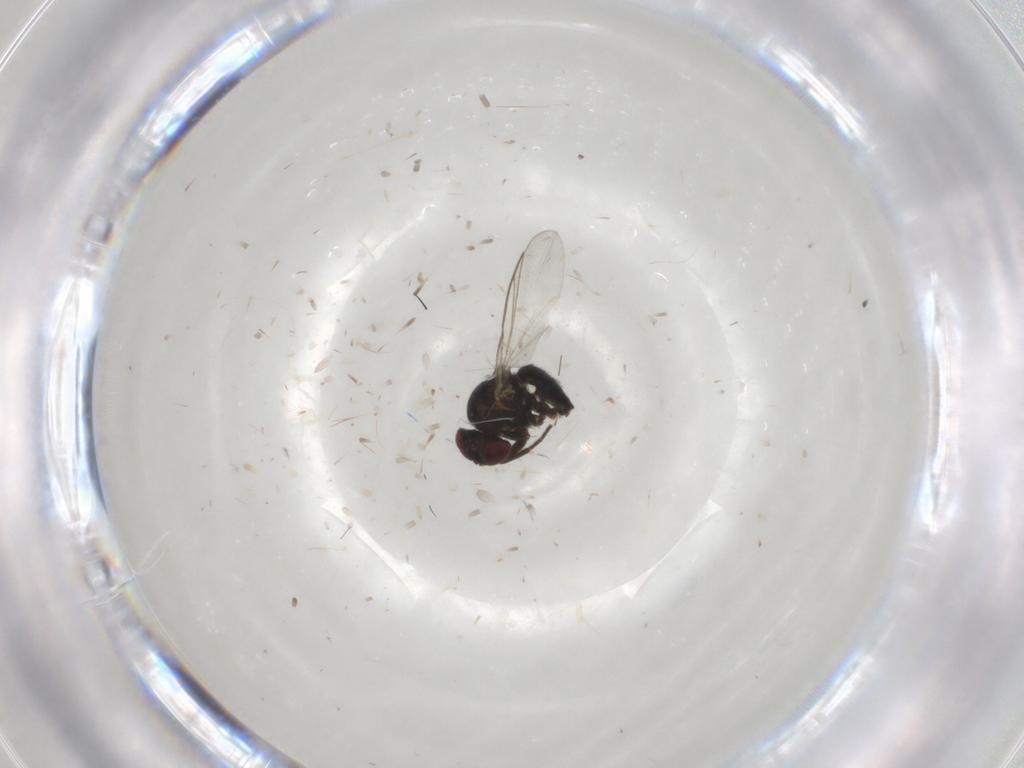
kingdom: Animalia
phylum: Arthropoda
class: Insecta
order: Diptera
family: Agromyzidae
